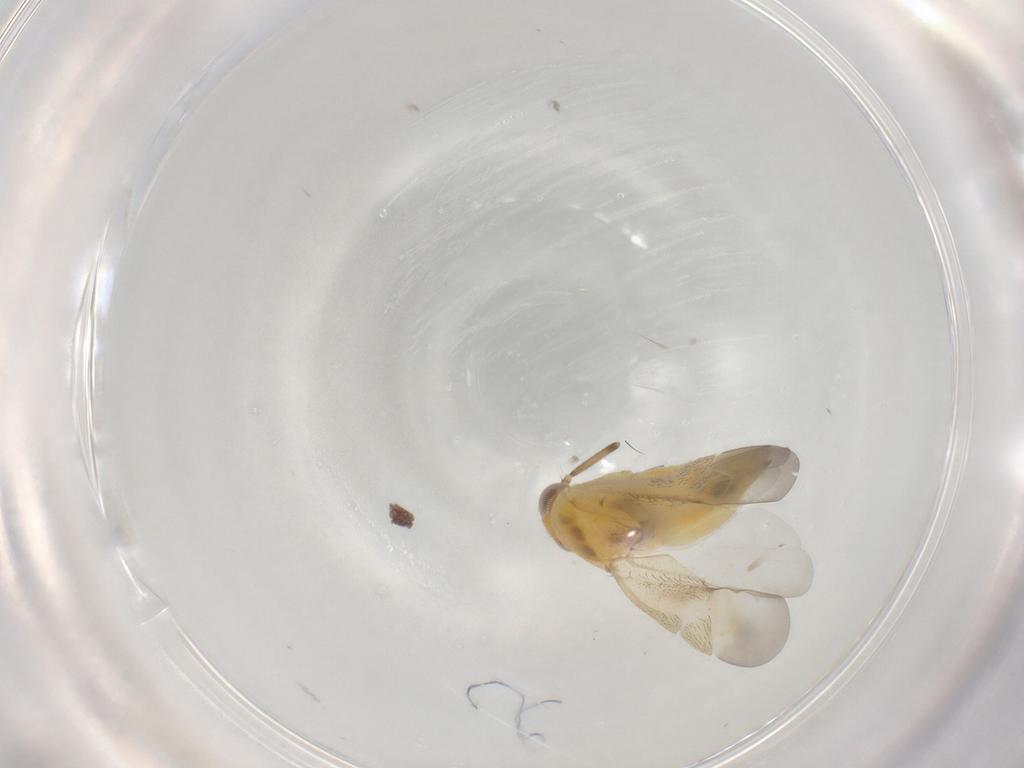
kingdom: Animalia
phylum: Arthropoda
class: Insecta
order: Hemiptera
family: Miridae
